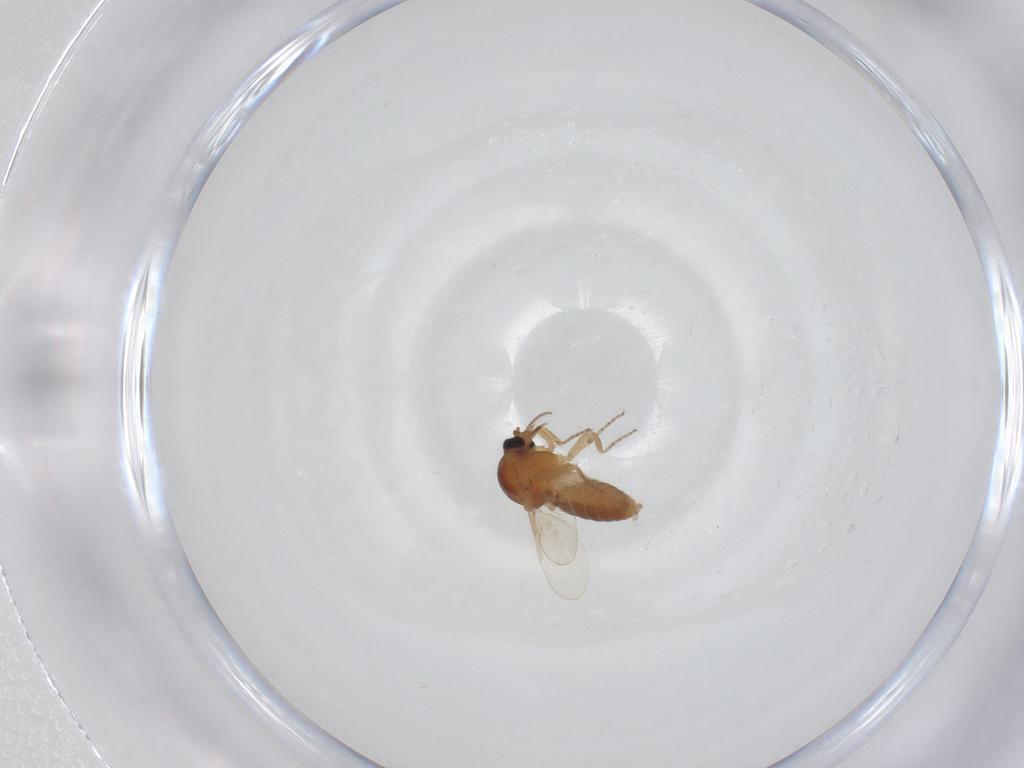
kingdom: Animalia
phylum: Arthropoda
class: Insecta
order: Diptera
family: Ceratopogonidae
